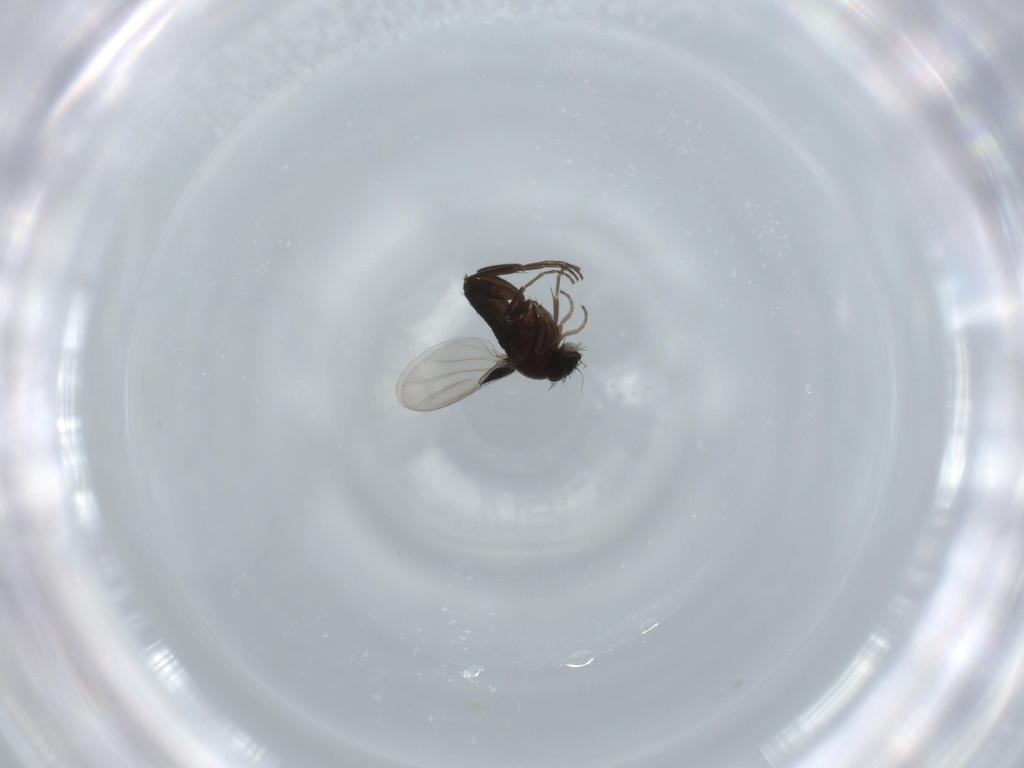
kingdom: Animalia
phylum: Arthropoda
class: Insecta
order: Diptera
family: Phoridae
